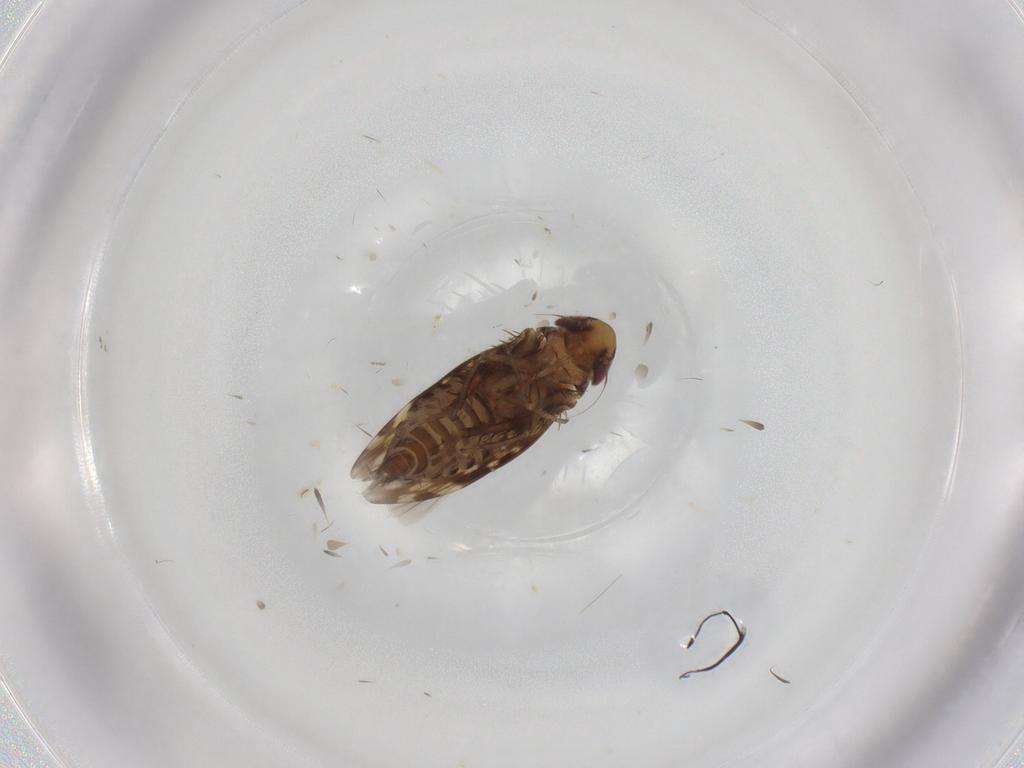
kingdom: Animalia
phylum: Arthropoda
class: Insecta
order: Hemiptera
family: Cicadellidae
